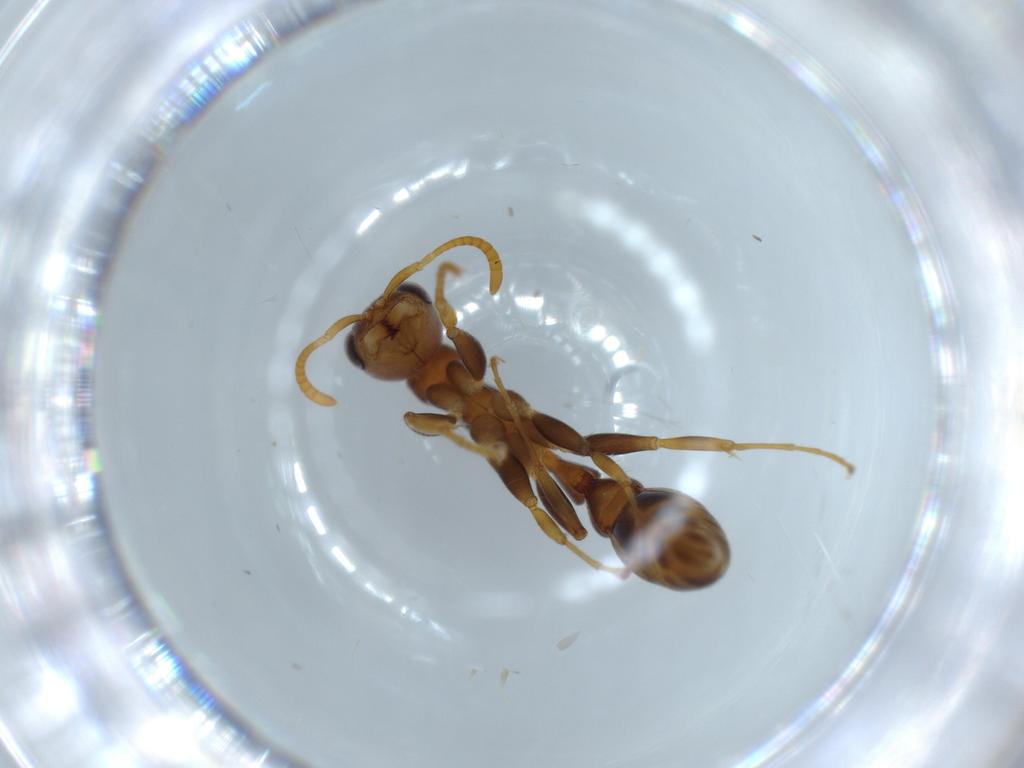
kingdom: Animalia
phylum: Arthropoda
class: Insecta
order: Hymenoptera
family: Formicidae
